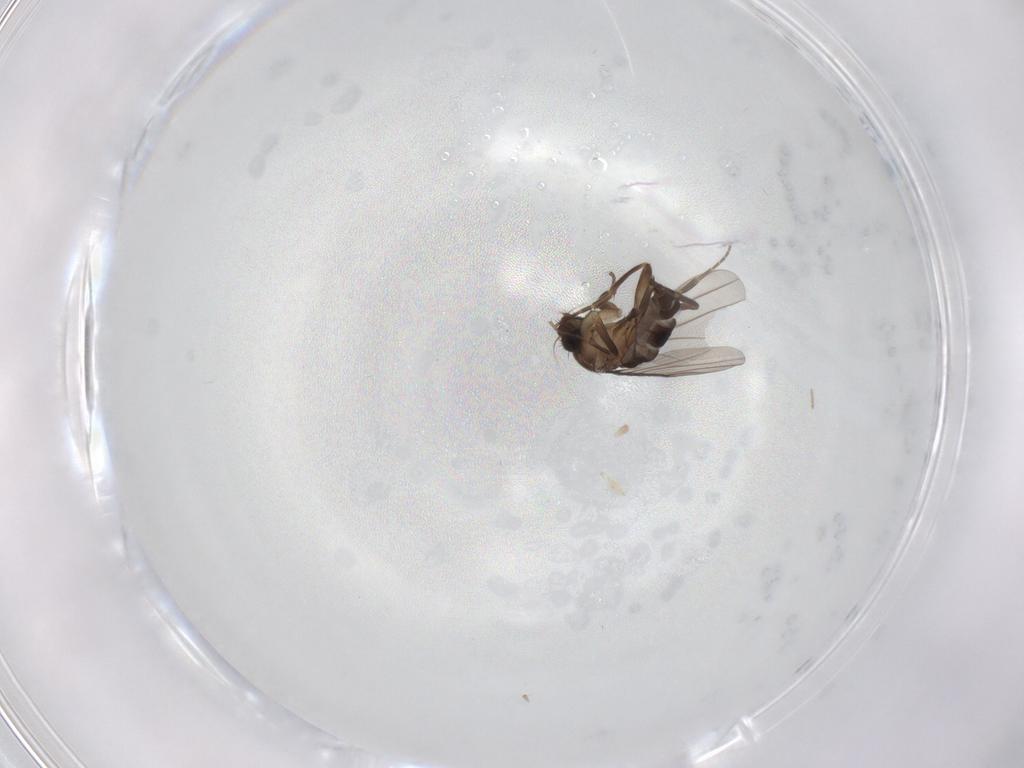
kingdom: Animalia
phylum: Arthropoda
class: Insecta
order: Diptera
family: Phoridae
